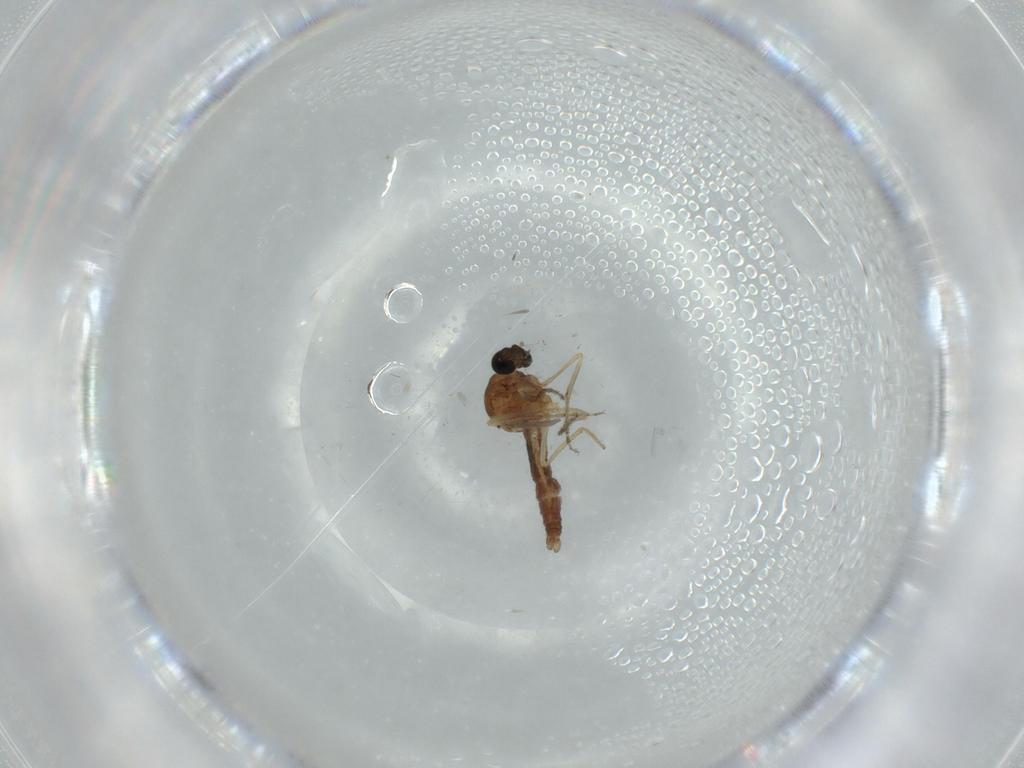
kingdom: Animalia
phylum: Arthropoda
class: Insecta
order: Diptera
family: Ceratopogonidae
